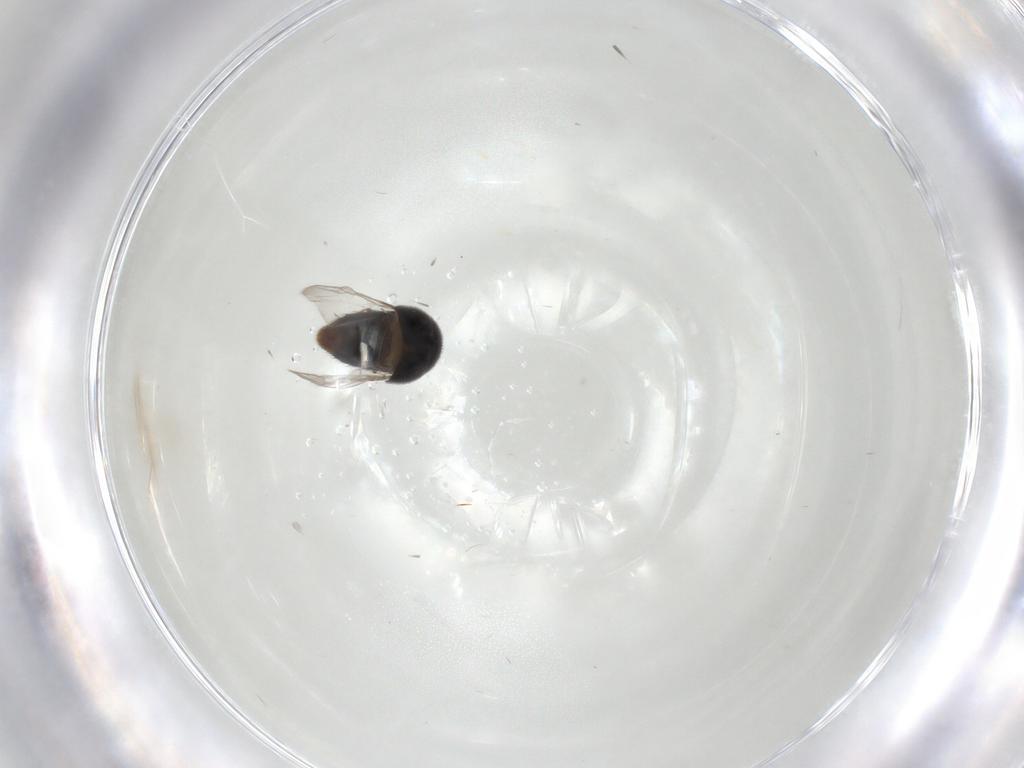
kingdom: Animalia
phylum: Arthropoda
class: Insecta
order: Coleoptera
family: Staphylinidae
